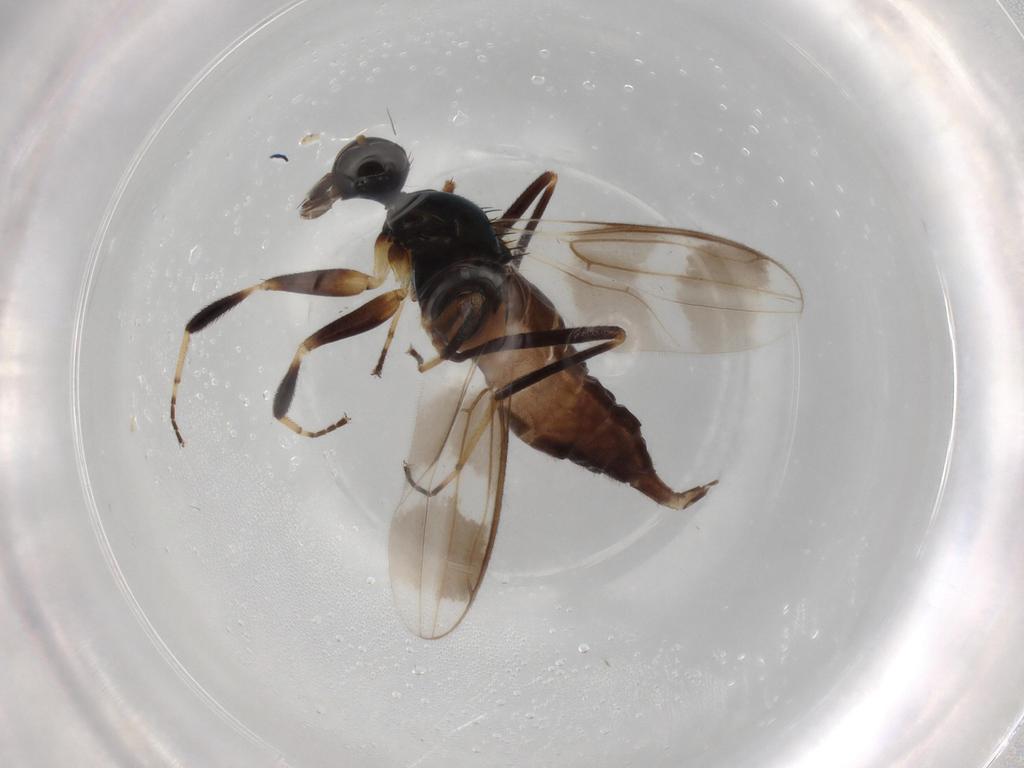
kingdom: Animalia
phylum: Arthropoda
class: Insecta
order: Diptera
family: Hybotidae
